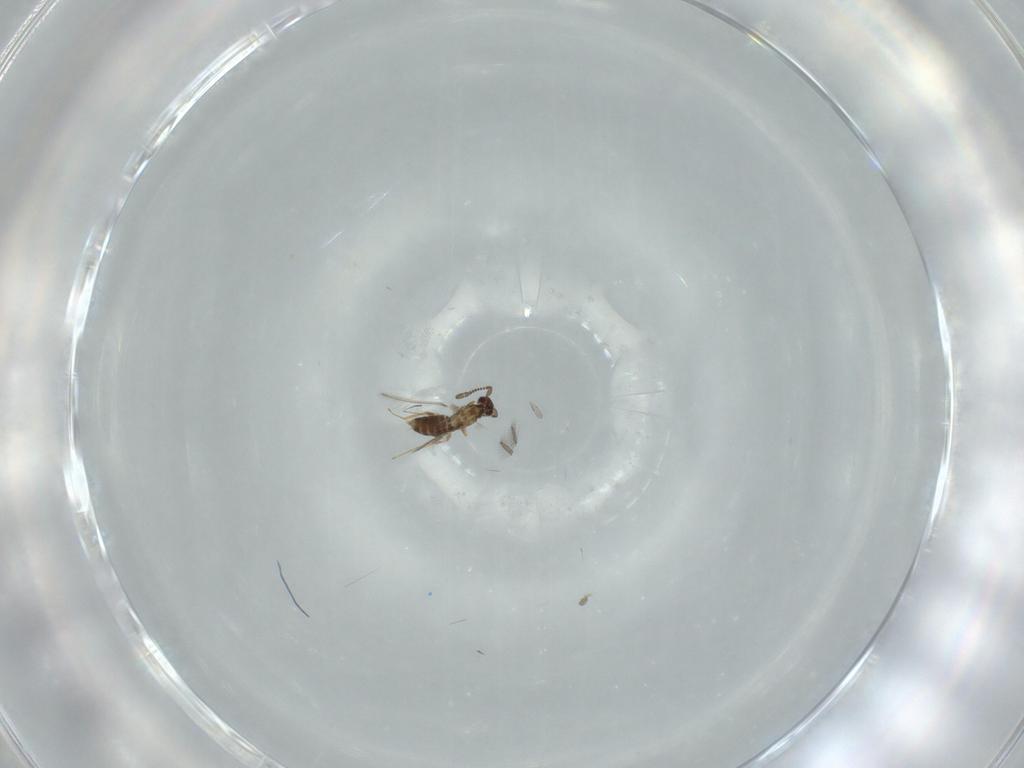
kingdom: Animalia
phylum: Arthropoda
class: Insecta
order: Hymenoptera
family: Mymaridae
